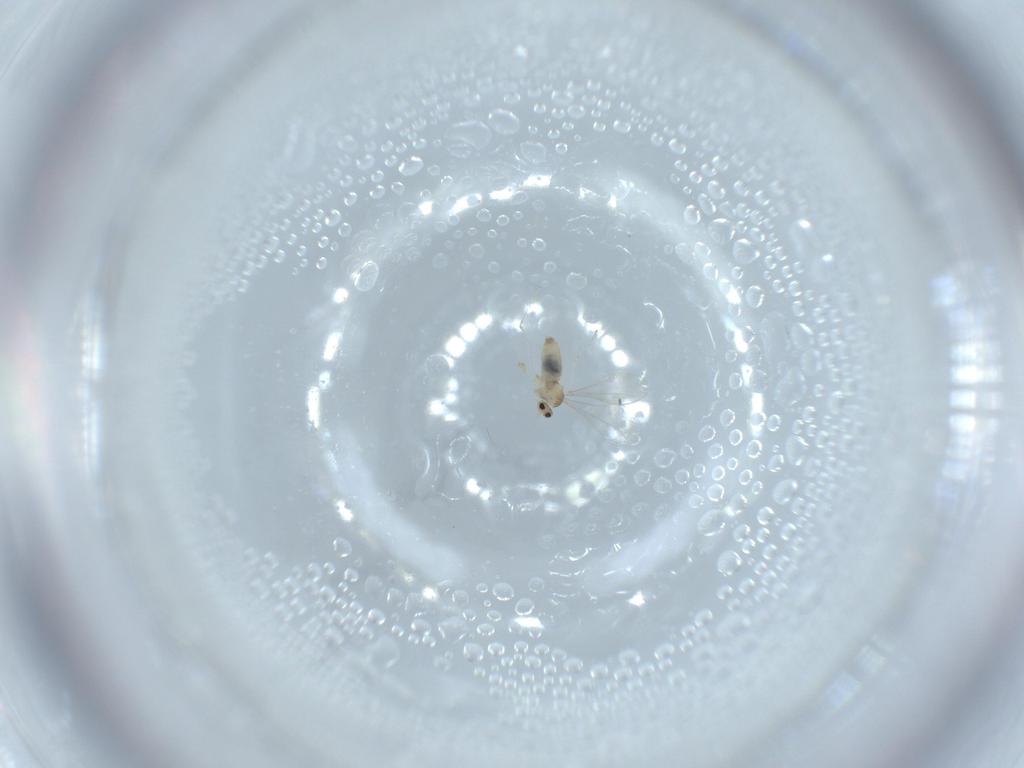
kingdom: Animalia
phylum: Arthropoda
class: Insecta
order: Diptera
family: Cecidomyiidae
